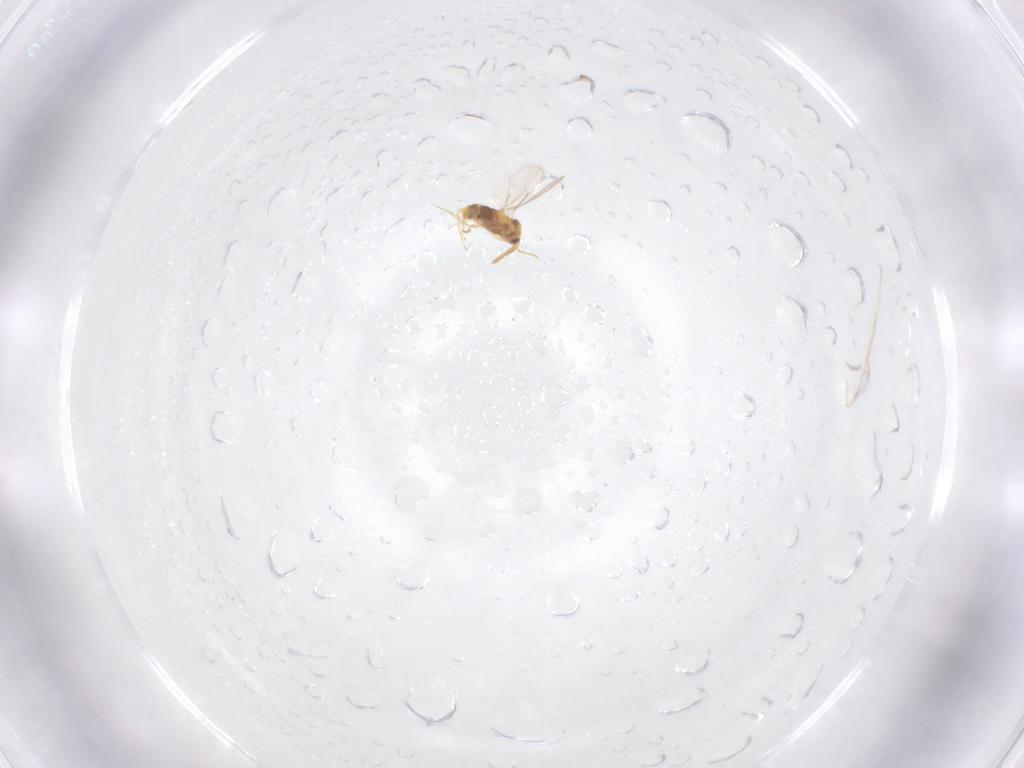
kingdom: Animalia
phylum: Arthropoda
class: Insecta
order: Hymenoptera
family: Aphelinidae
